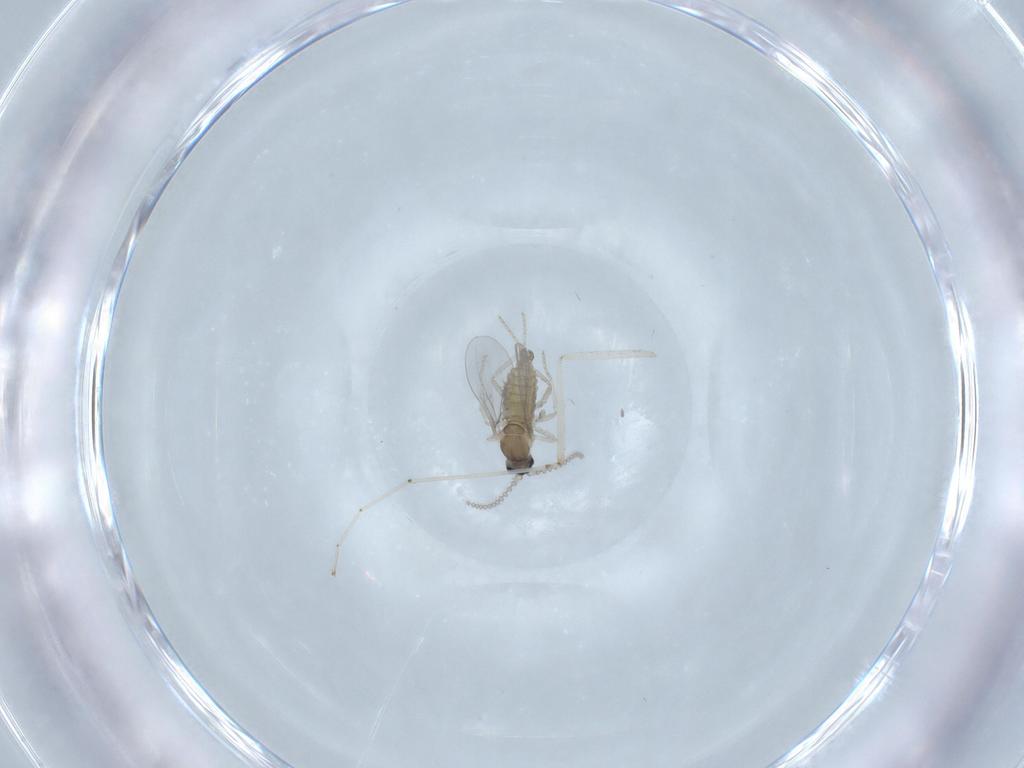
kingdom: Animalia
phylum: Arthropoda
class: Insecta
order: Diptera
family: Cecidomyiidae
